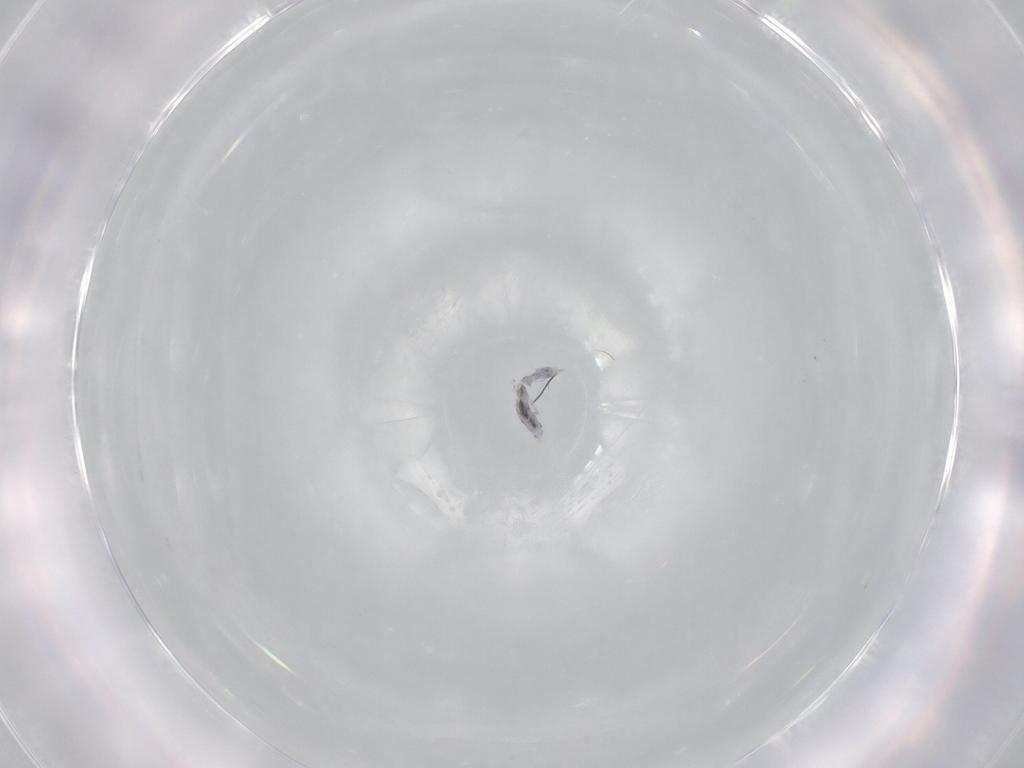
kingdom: Animalia
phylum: Arthropoda
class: Collembola
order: Entomobryomorpha
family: Entomobryidae
